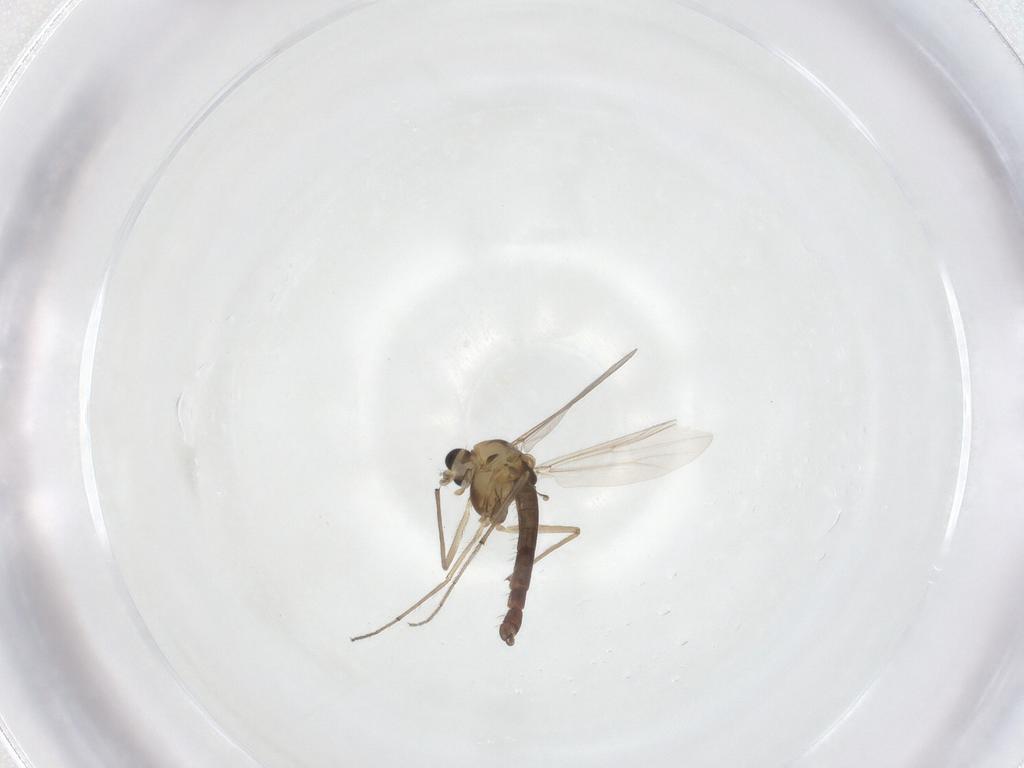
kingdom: Animalia
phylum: Arthropoda
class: Insecta
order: Diptera
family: Chironomidae
